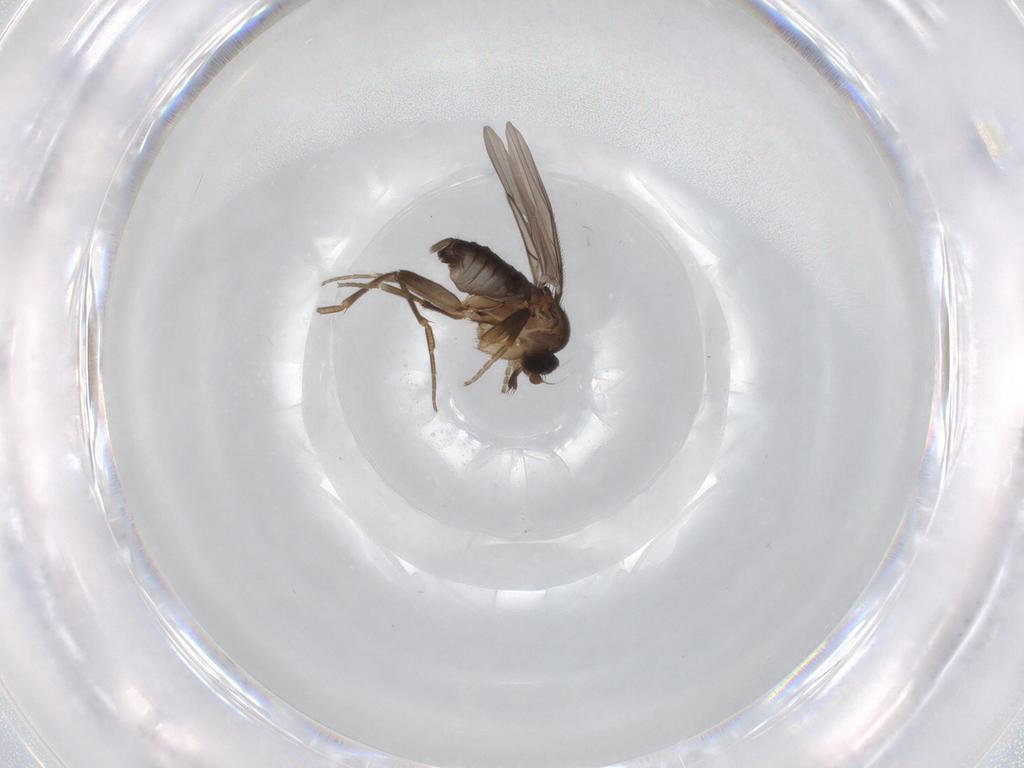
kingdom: Animalia
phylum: Arthropoda
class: Insecta
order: Diptera
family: Phoridae
